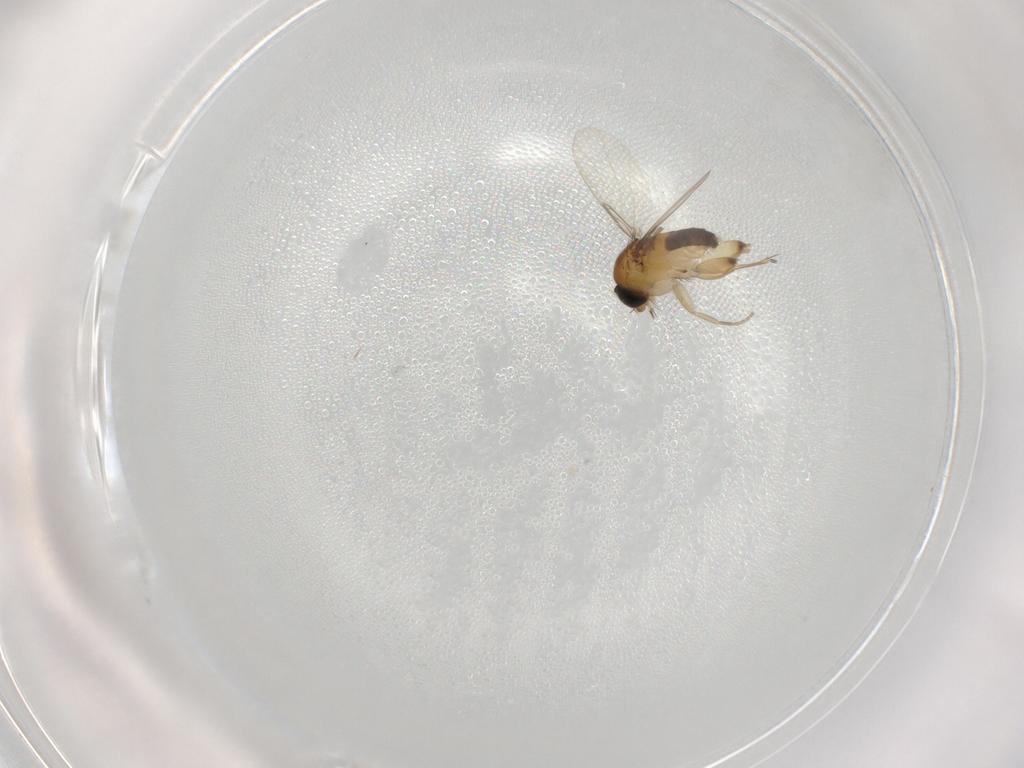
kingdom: Animalia
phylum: Arthropoda
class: Insecta
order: Diptera
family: Phoridae
